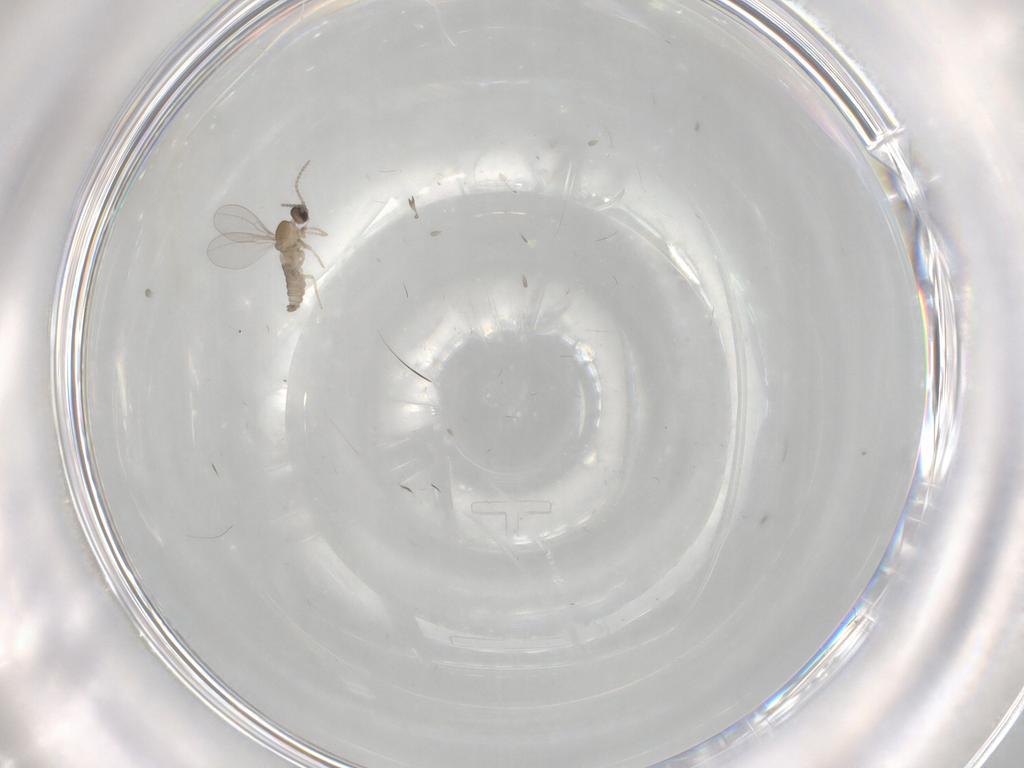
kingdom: Animalia
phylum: Arthropoda
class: Insecta
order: Diptera
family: Cecidomyiidae
